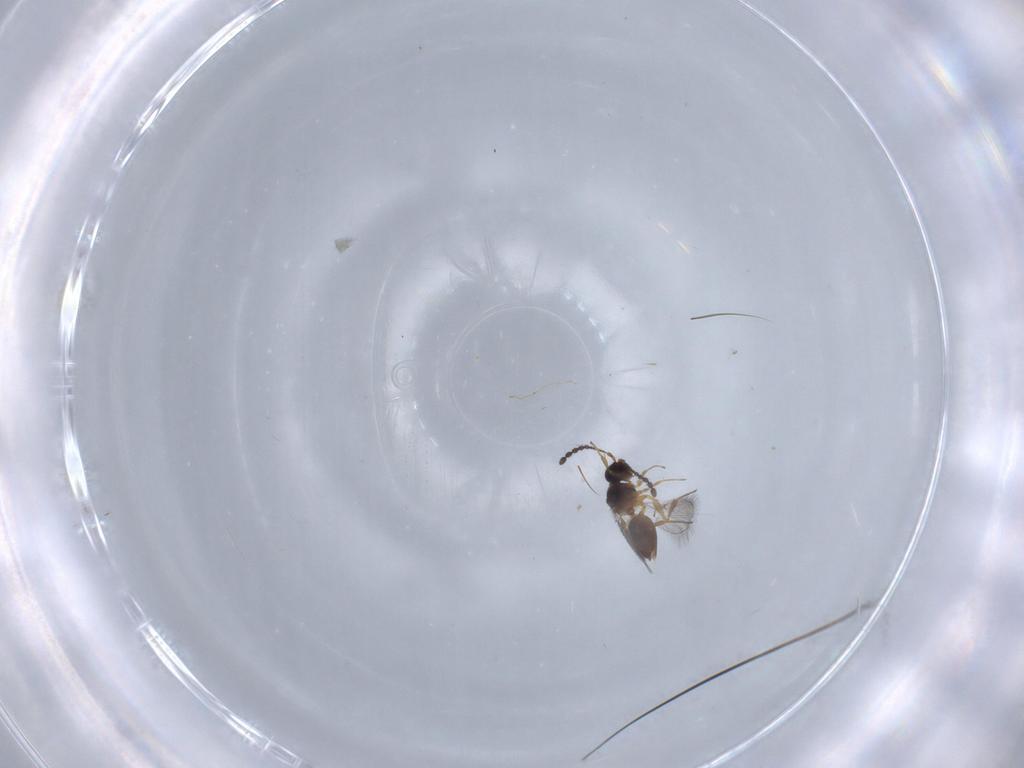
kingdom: Animalia
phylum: Arthropoda
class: Insecta
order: Hymenoptera
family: Figitidae
